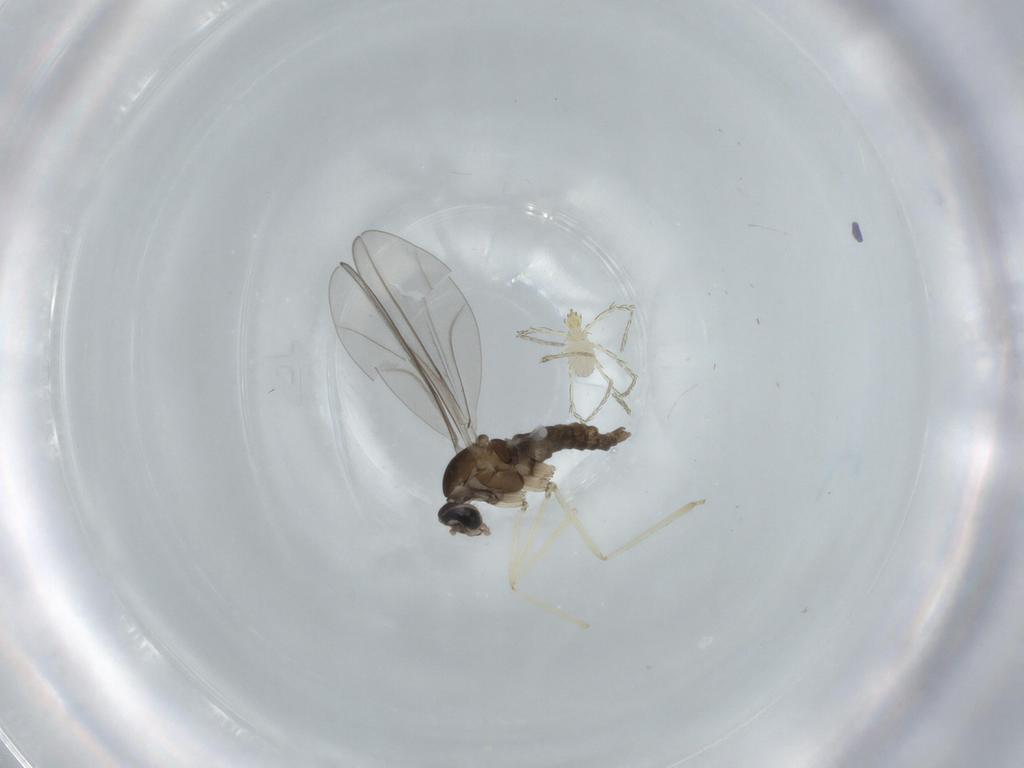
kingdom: Animalia
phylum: Arthropoda
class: Insecta
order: Diptera
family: Cecidomyiidae
